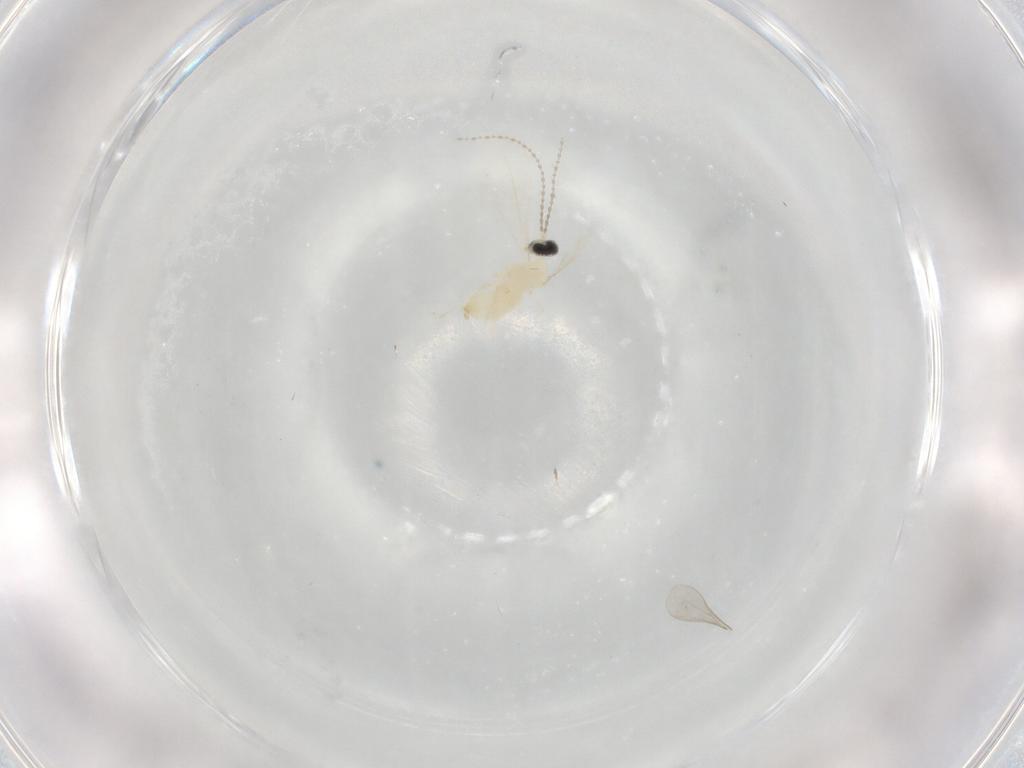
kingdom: Animalia
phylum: Arthropoda
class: Insecta
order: Diptera
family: Cecidomyiidae
